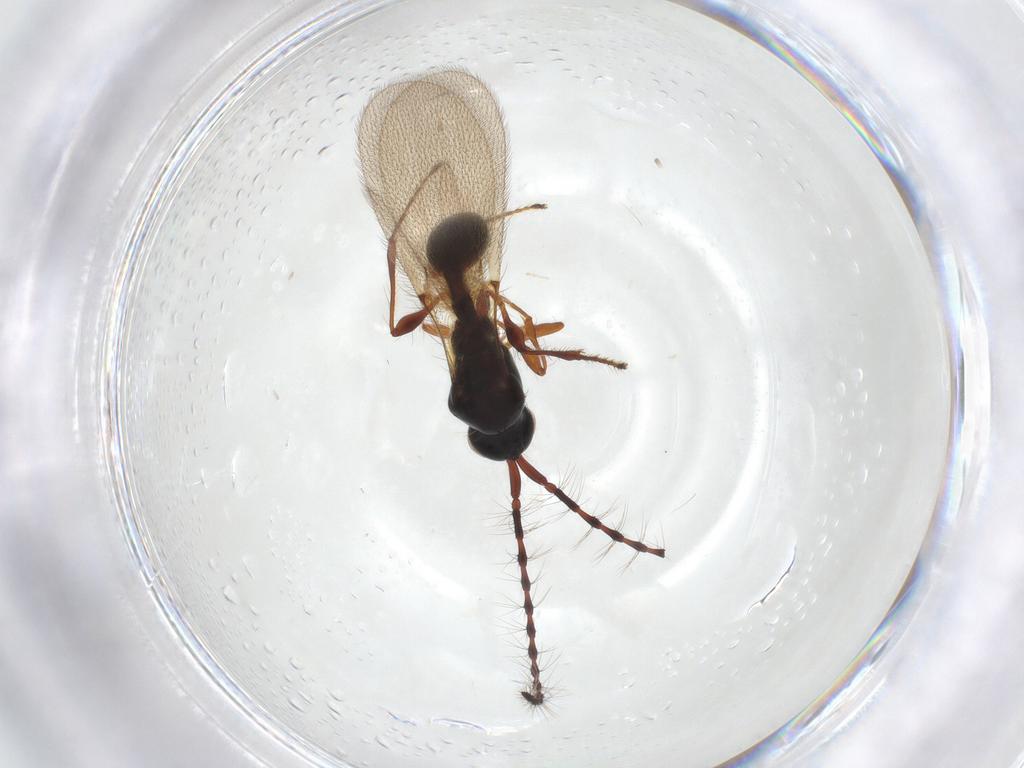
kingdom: Animalia
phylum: Arthropoda
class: Insecta
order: Hymenoptera
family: Diapriidae
